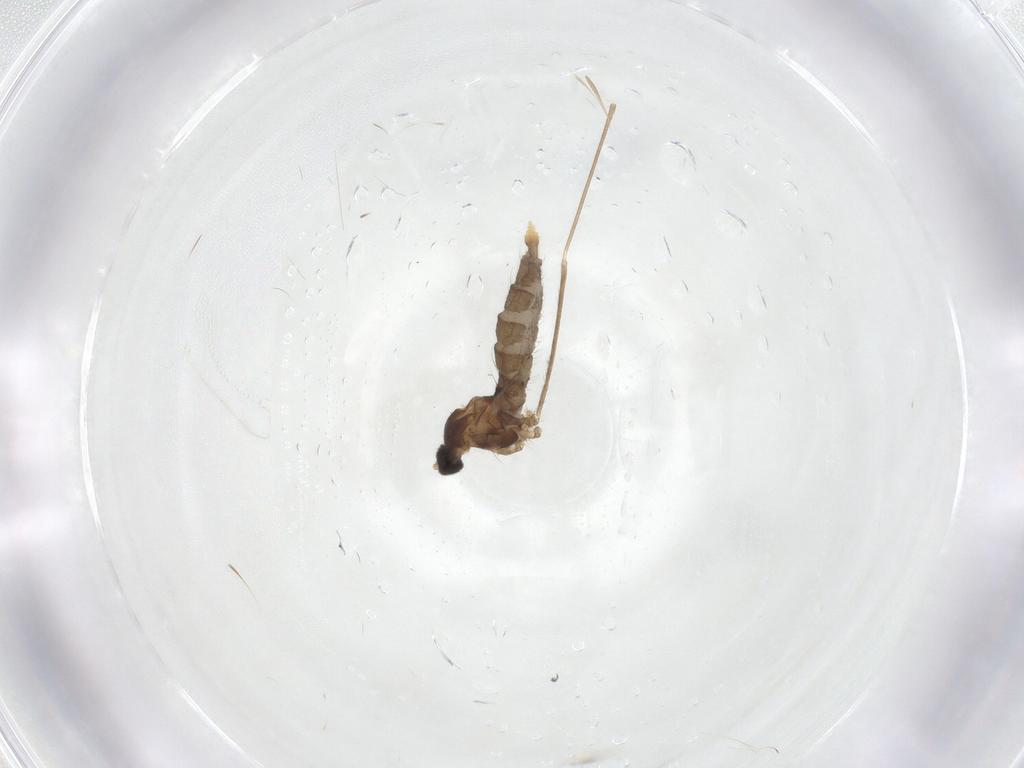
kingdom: Animalia
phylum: Arthropoda
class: Insecta
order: Diptera
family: Cecidomyiidae
